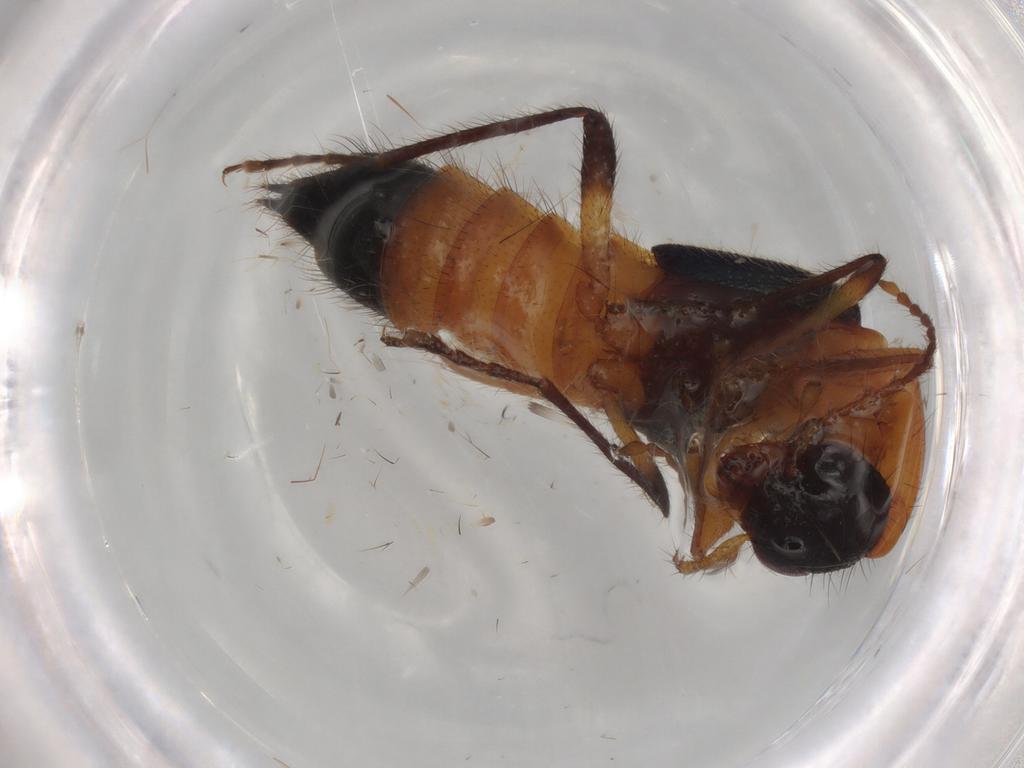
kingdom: Animalia
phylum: Arthropoda
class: Insecta
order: Coleoptera
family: Staphylinidae
